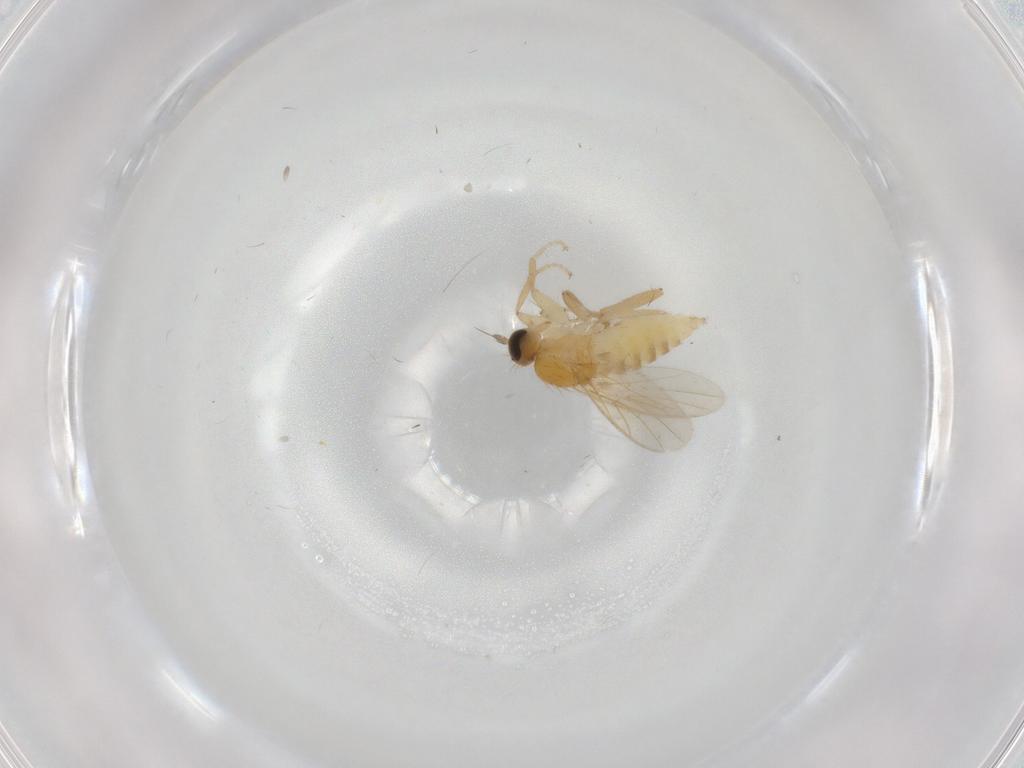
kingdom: Animalia
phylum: Arthropoda
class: Insecta
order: Diptera
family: Hybotidae
